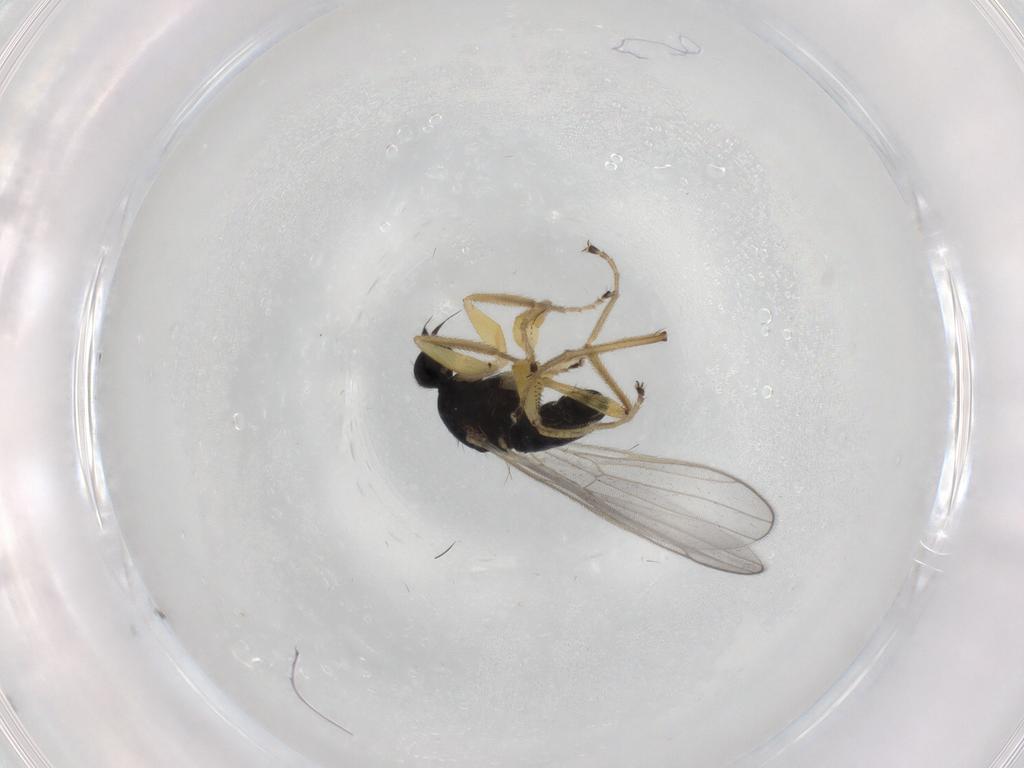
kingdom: Animalia
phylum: Arthropoda
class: Insecta
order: Diptera
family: Hybotidae
